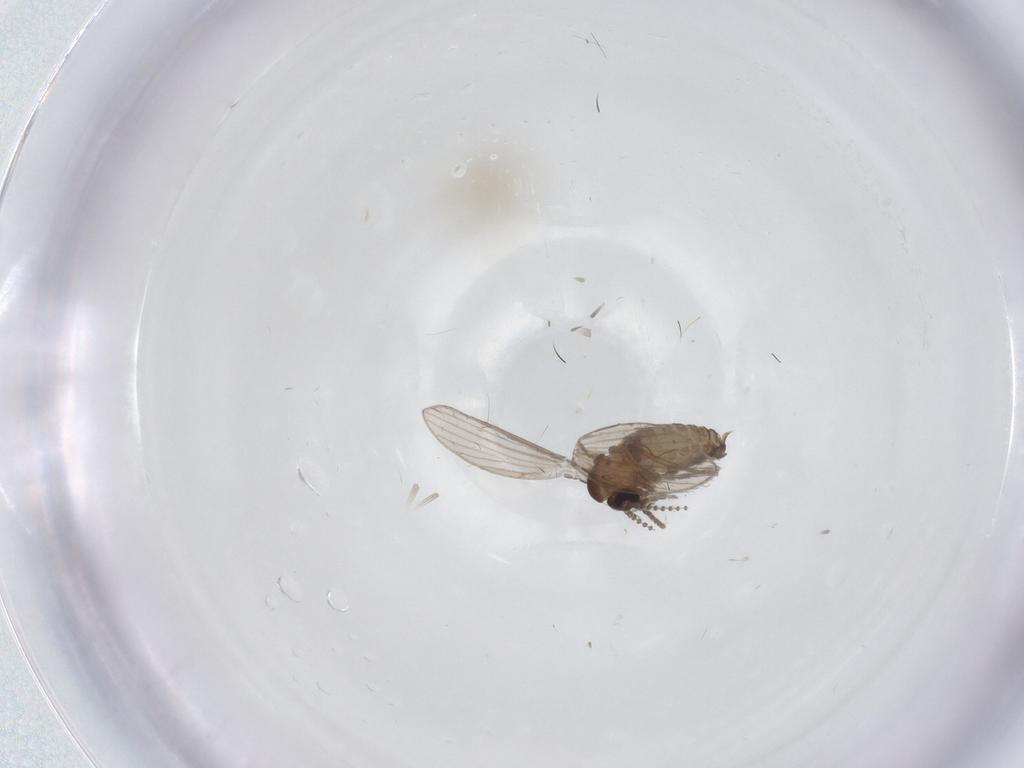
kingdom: Animalia
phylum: Arthropoda
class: Insecta
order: Diptera
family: Psychodidae
